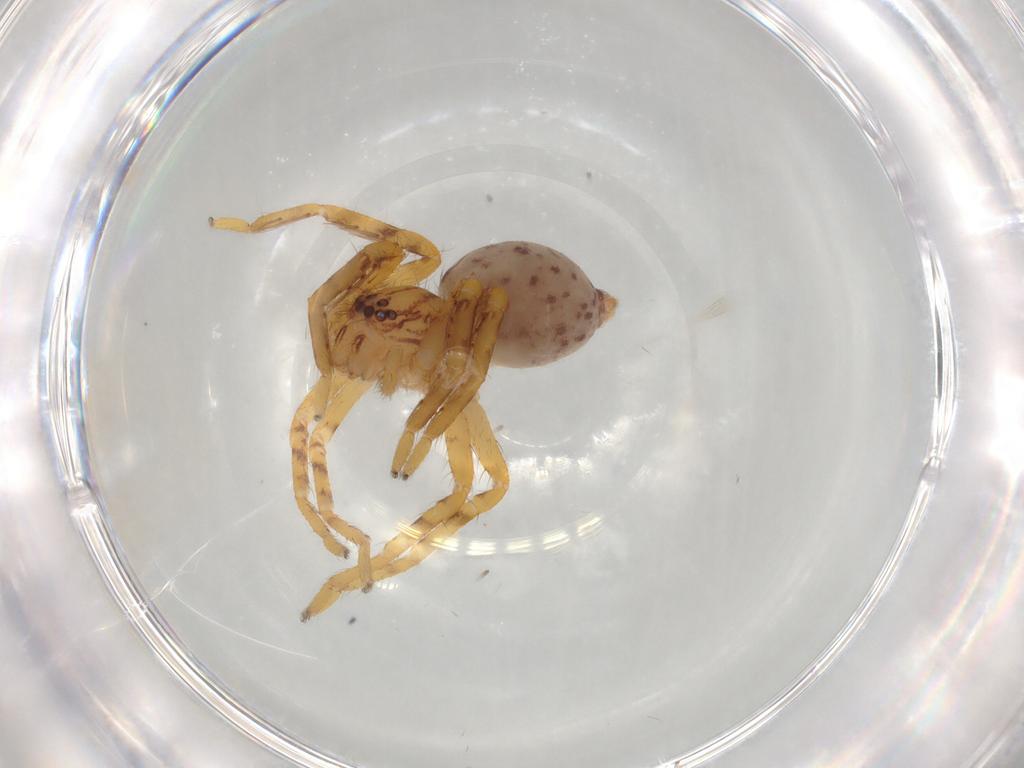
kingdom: Animalia
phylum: Arthropoda
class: Arachnida
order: Araneae
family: Sparassidae
